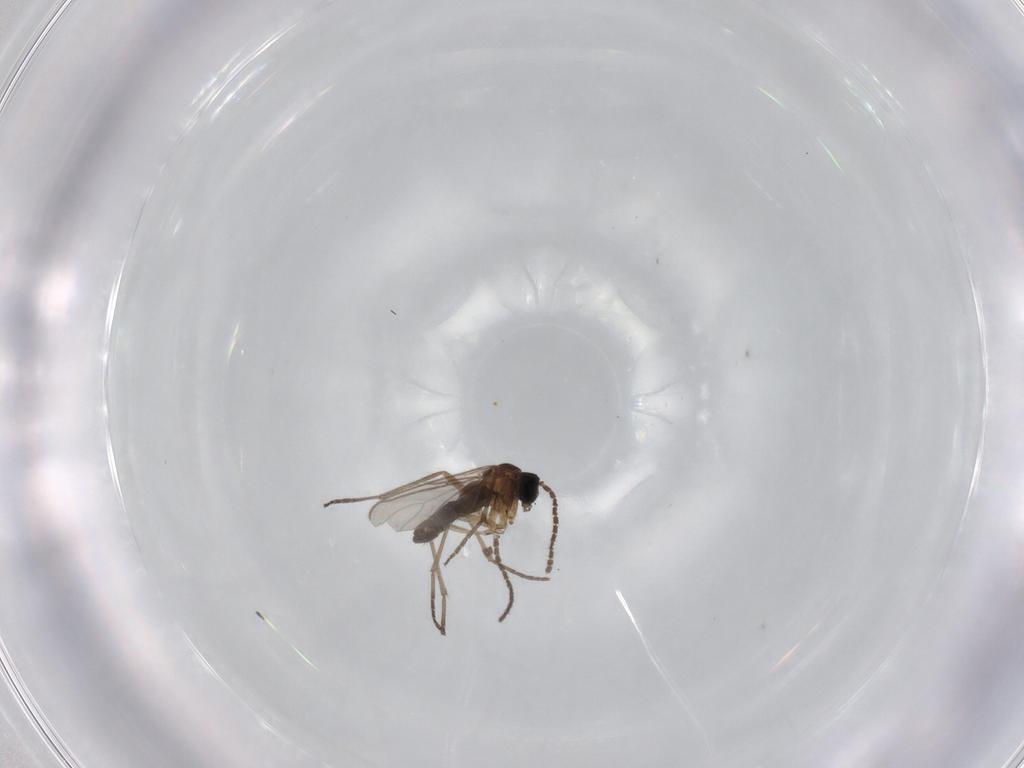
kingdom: Animalia
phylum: Arthropoda
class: Insecta
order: Diptera
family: Sciaridae
